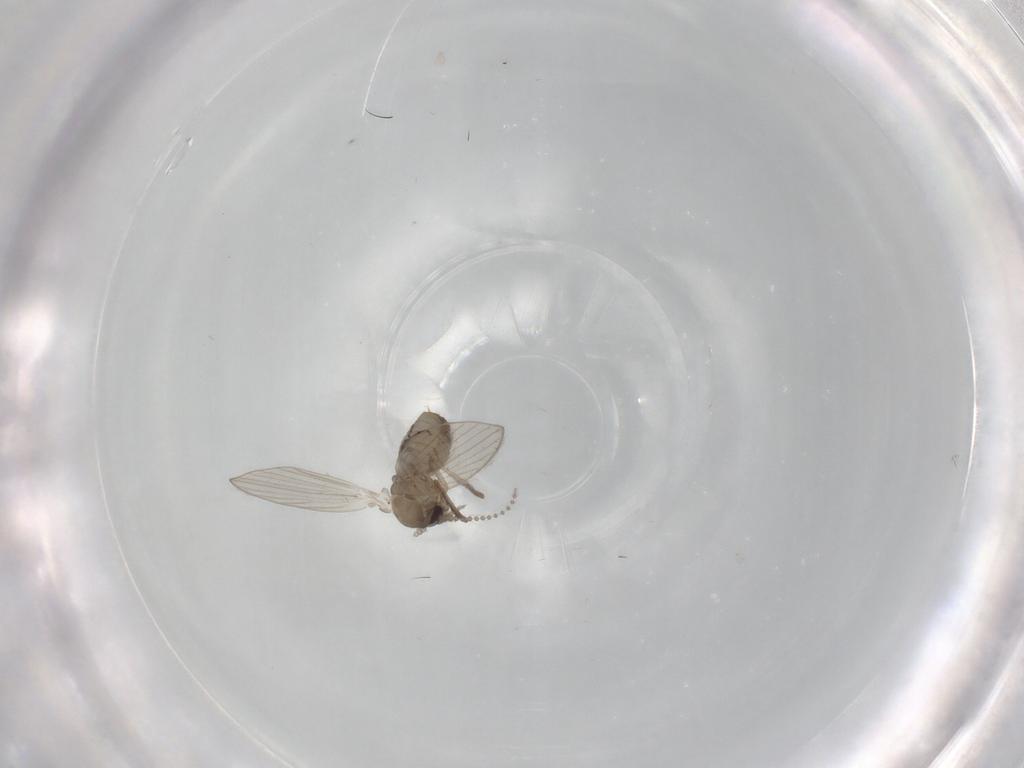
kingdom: Animalia
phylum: Arthropoda
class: Insecta
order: Diptera
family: Psychodidae
